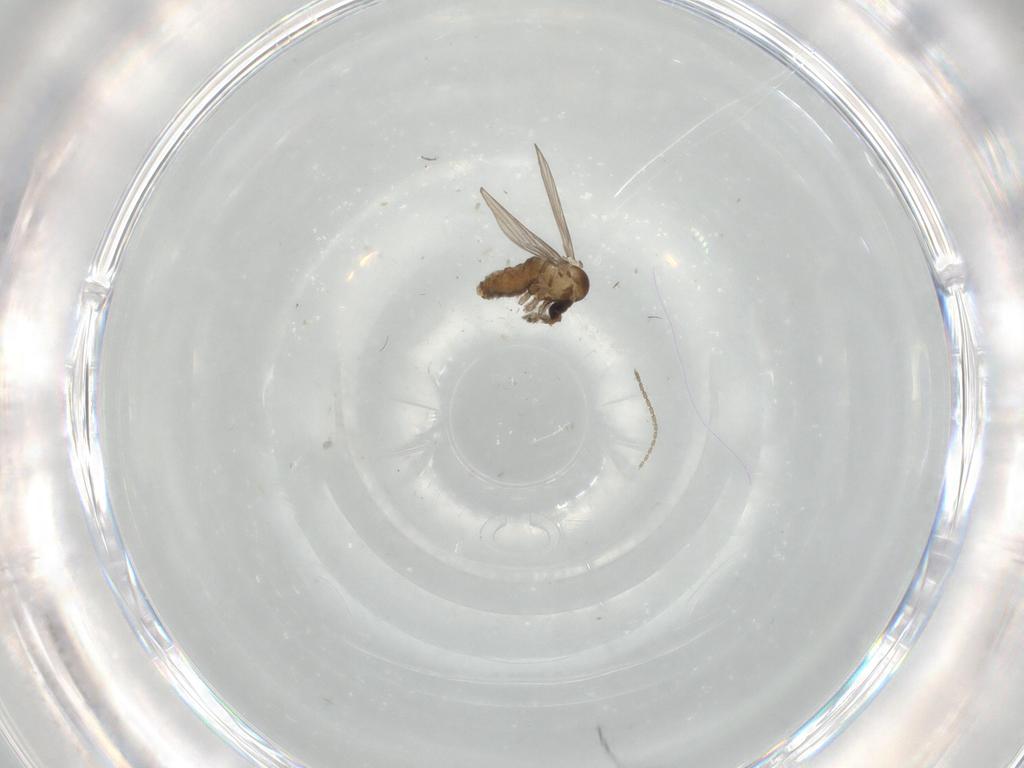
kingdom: Animalia
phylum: Arthropoda
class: Insecta
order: Diptera
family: Psychodidae
